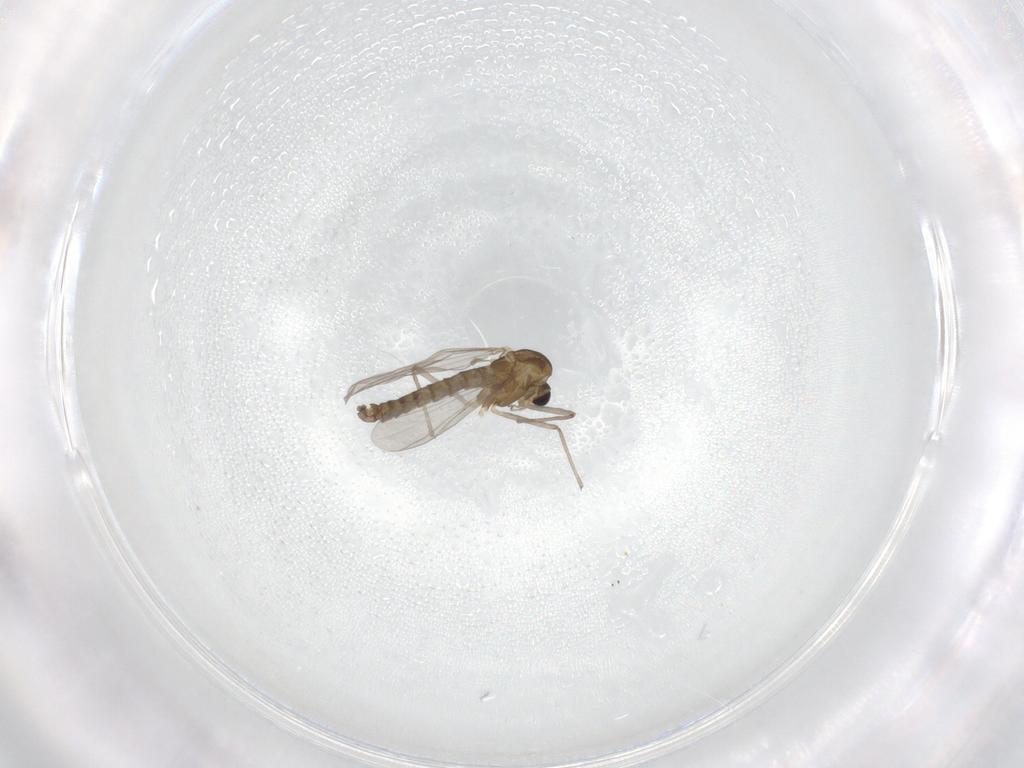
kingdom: Animalia
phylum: Arthropoda
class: Insecta
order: Diptera
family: Chironomidae
